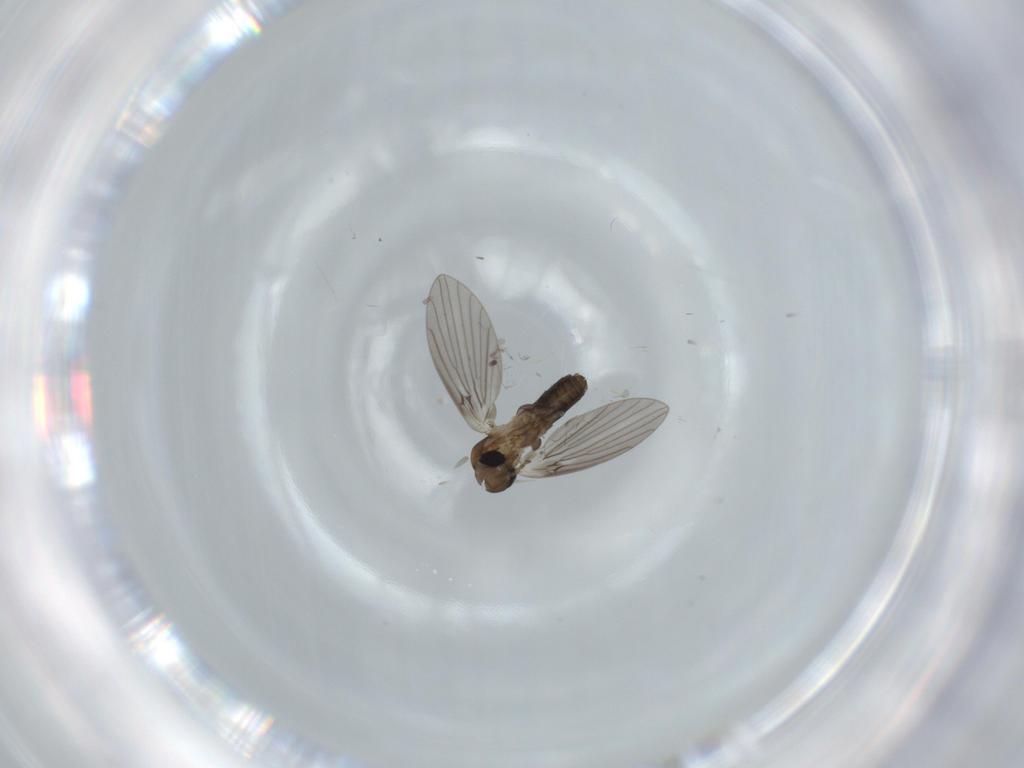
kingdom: Animalia
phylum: Arthropoda
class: Insecta
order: Diptera
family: Psychodidae
